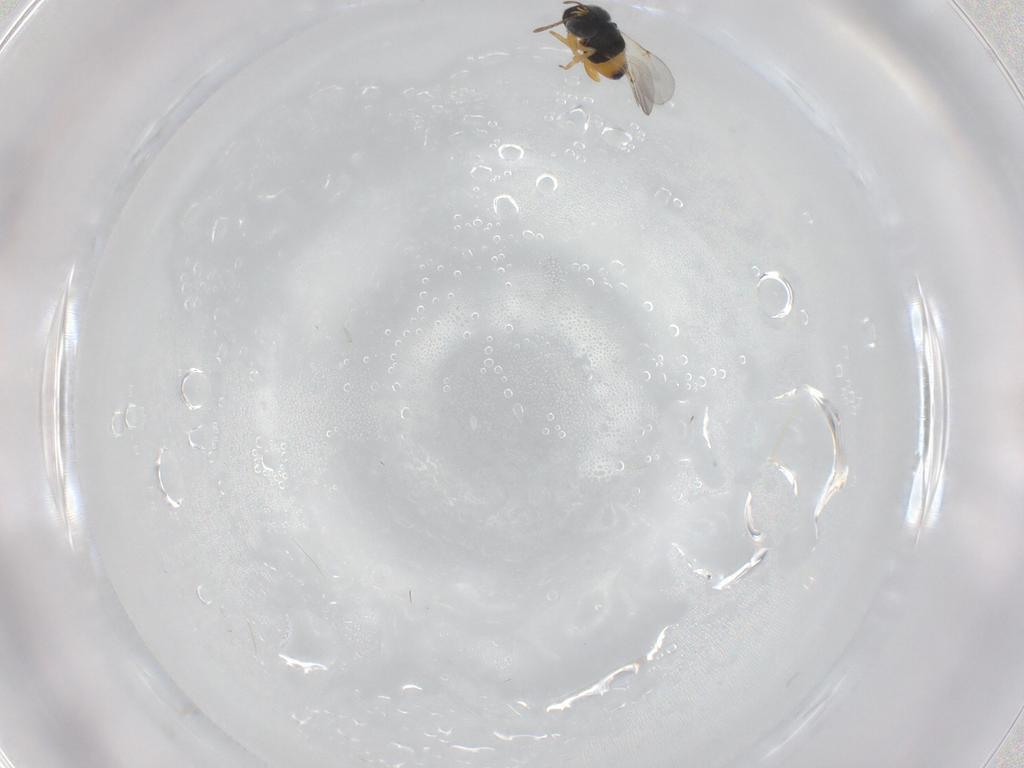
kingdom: Animalia
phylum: Arthropoda
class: Insecta
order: Hymenoptera
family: Encyrtidae
